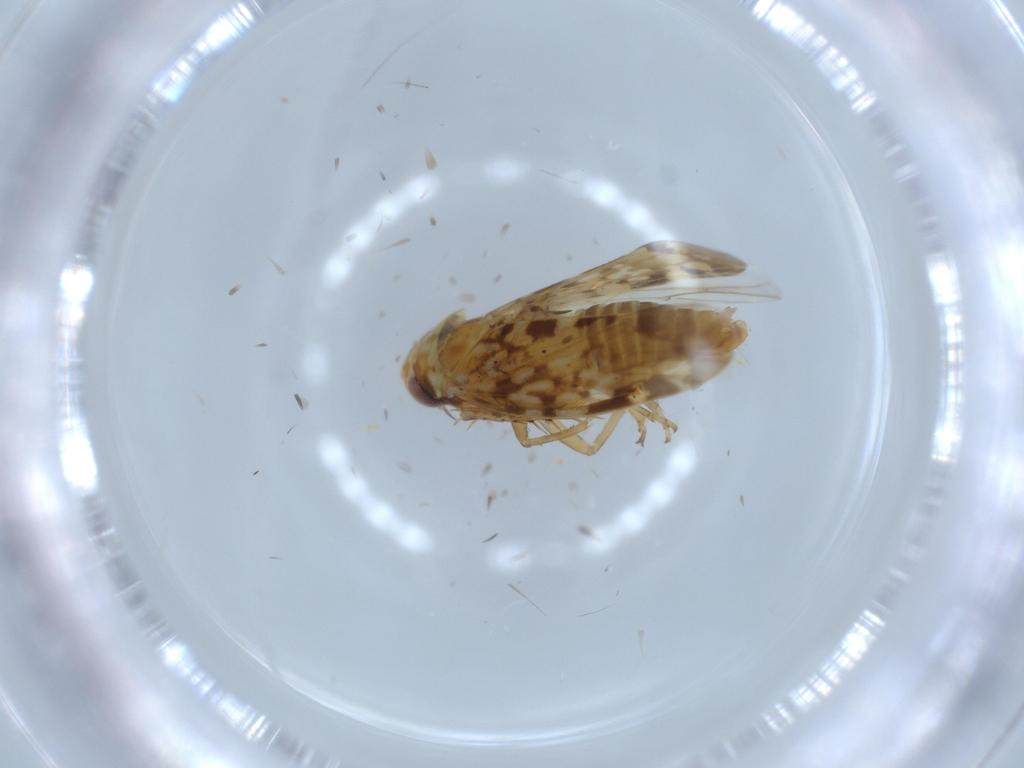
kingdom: Animalia
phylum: Arthropoda
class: Insecta
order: Hemiptera
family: Cicadellidae
